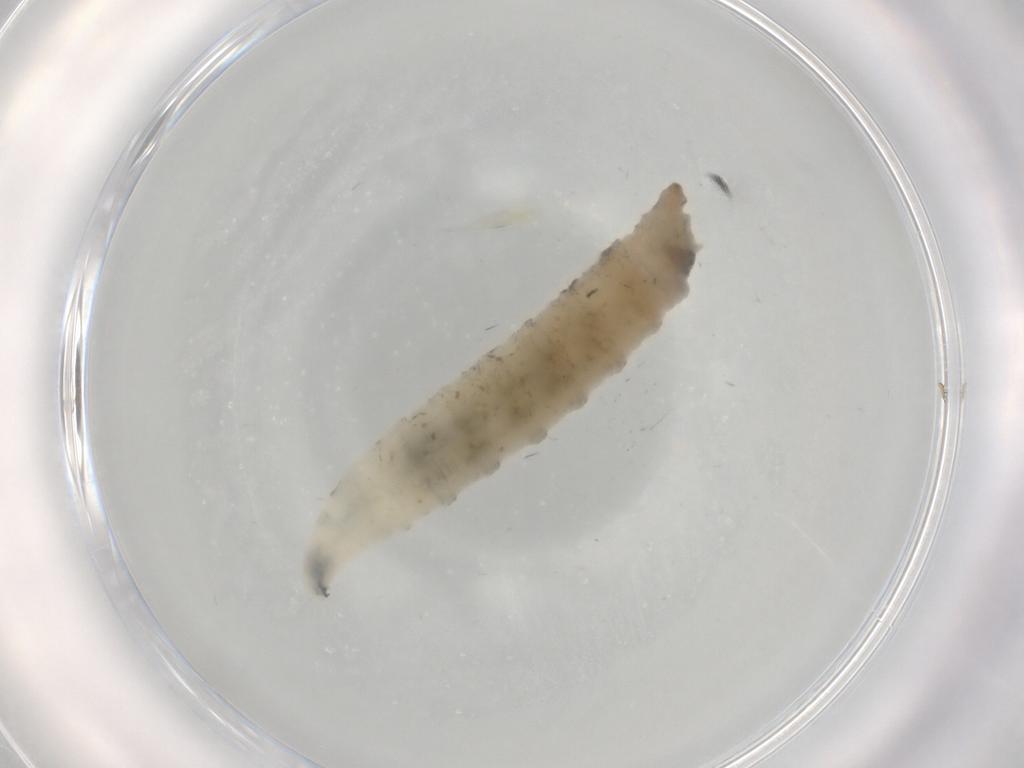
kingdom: Animalia
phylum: Arthropoda
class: Insecta
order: Diptera
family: Drosophilidae
